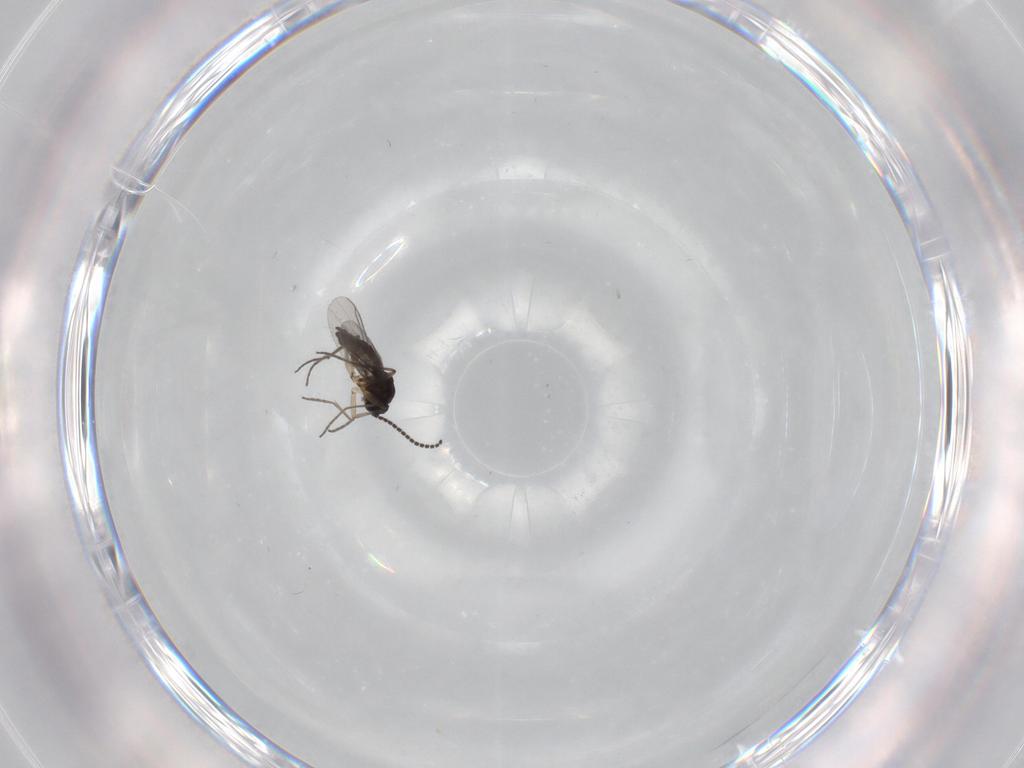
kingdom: Animalia
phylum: Arthropoda
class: Insecta
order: Diptera
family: Sciaridae
